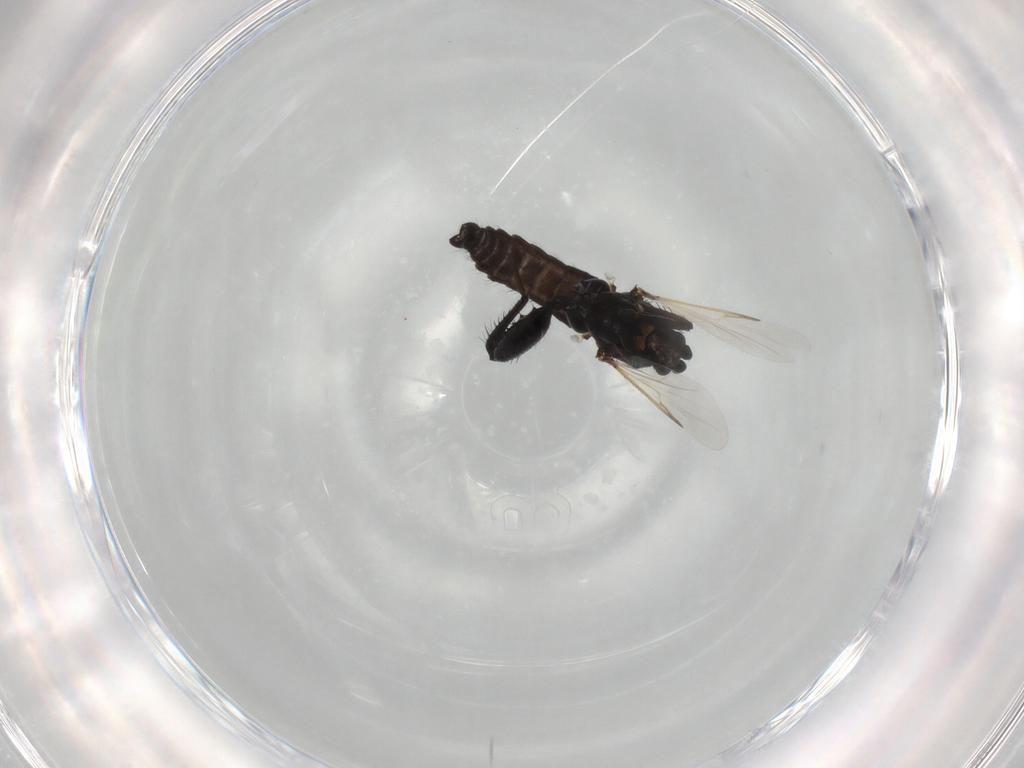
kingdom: Animalia
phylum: Arthropoda
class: Insecta
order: Diptera
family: Ceratopogonidae
